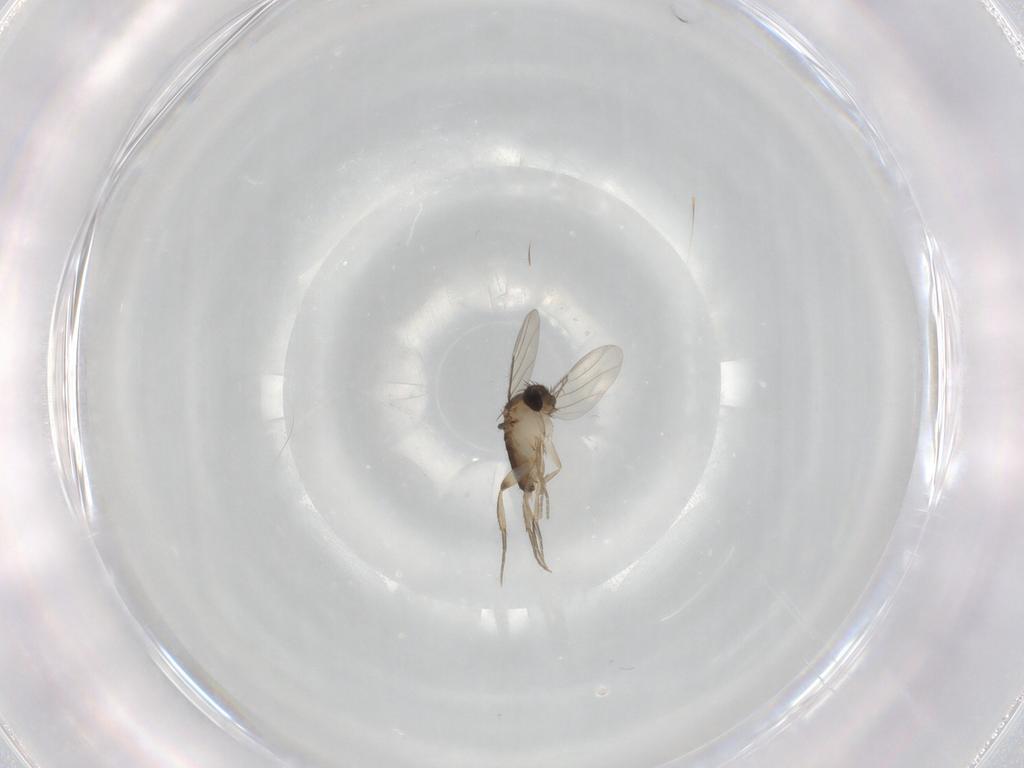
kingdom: Animalia
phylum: Arthropoda
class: Insecta
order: Diptera
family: Phoridae
